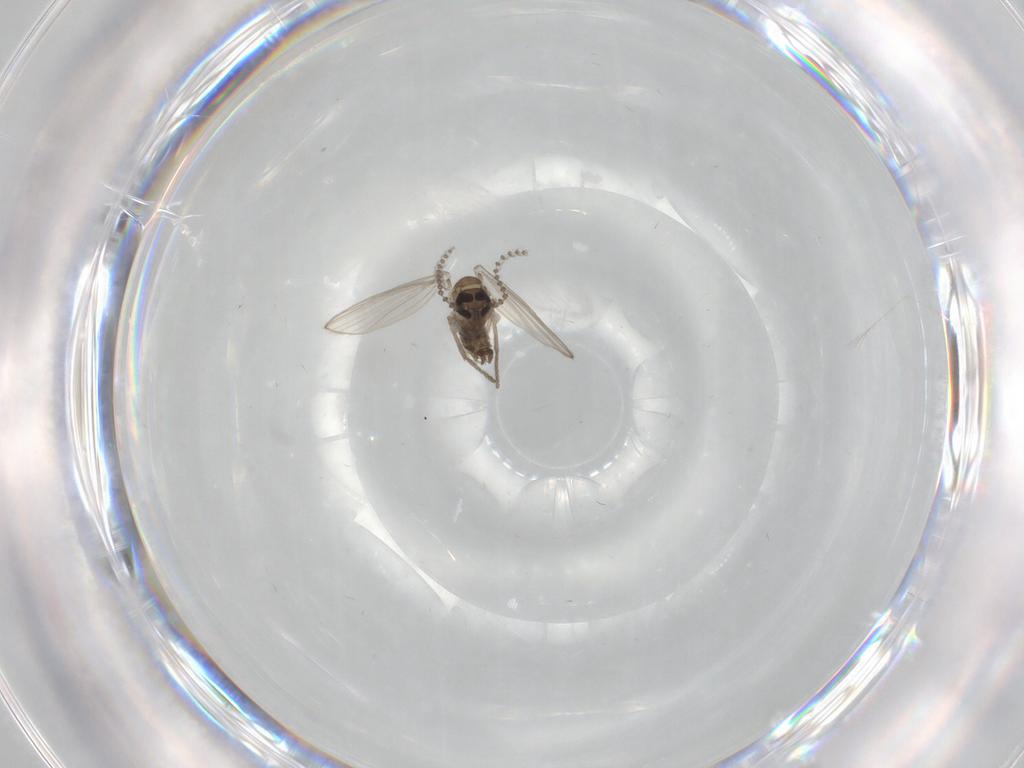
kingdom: Animalia
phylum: Arthropoda
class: Insecta
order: Diptera
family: Psychodidae
